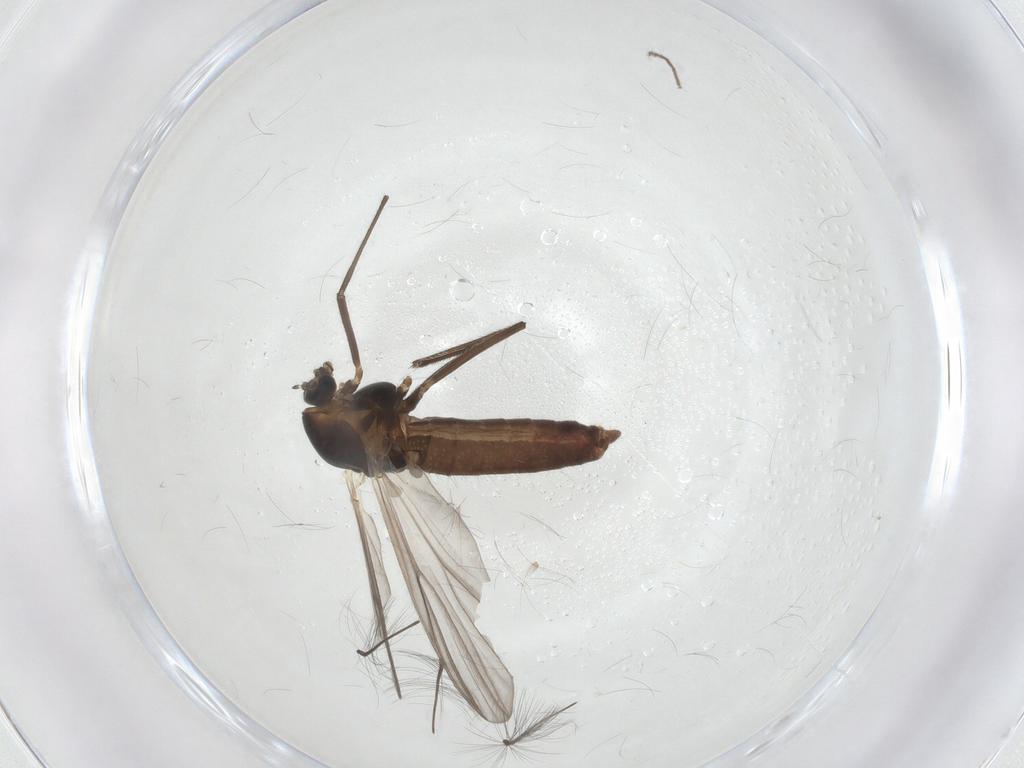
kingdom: Animalia
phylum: Arthropoda
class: Insecta
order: Diptera
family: Chironomidae
